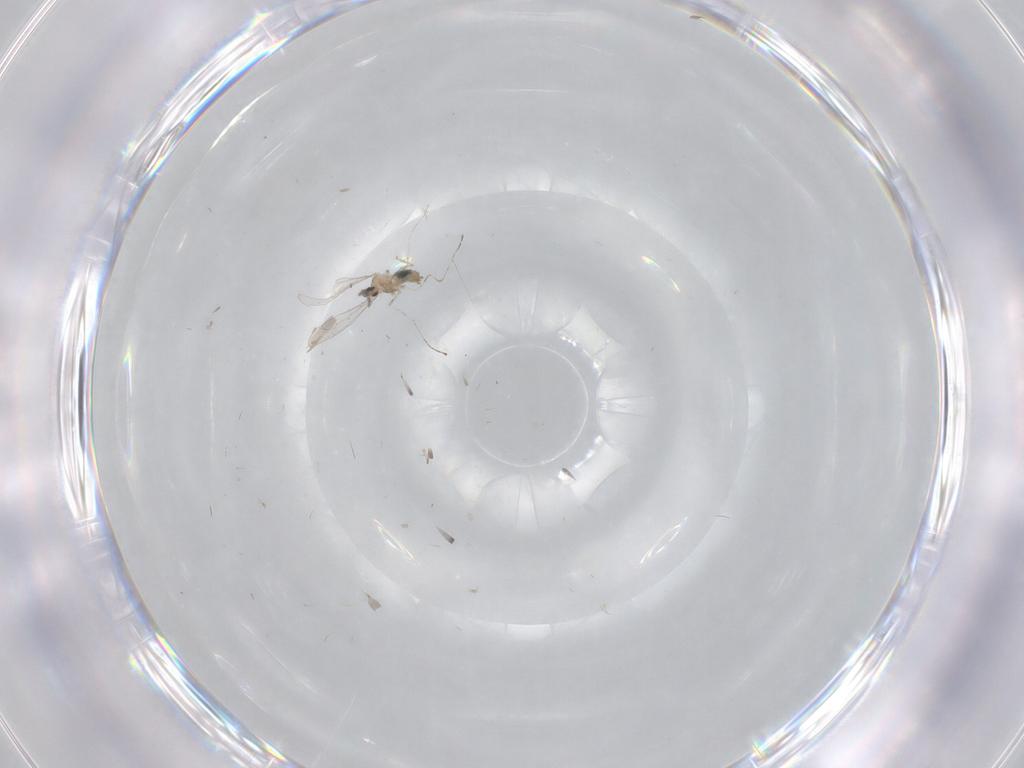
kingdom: Animalia
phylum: Arthropoda
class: Insecta
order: Diptera
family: Cecidomyiidae
